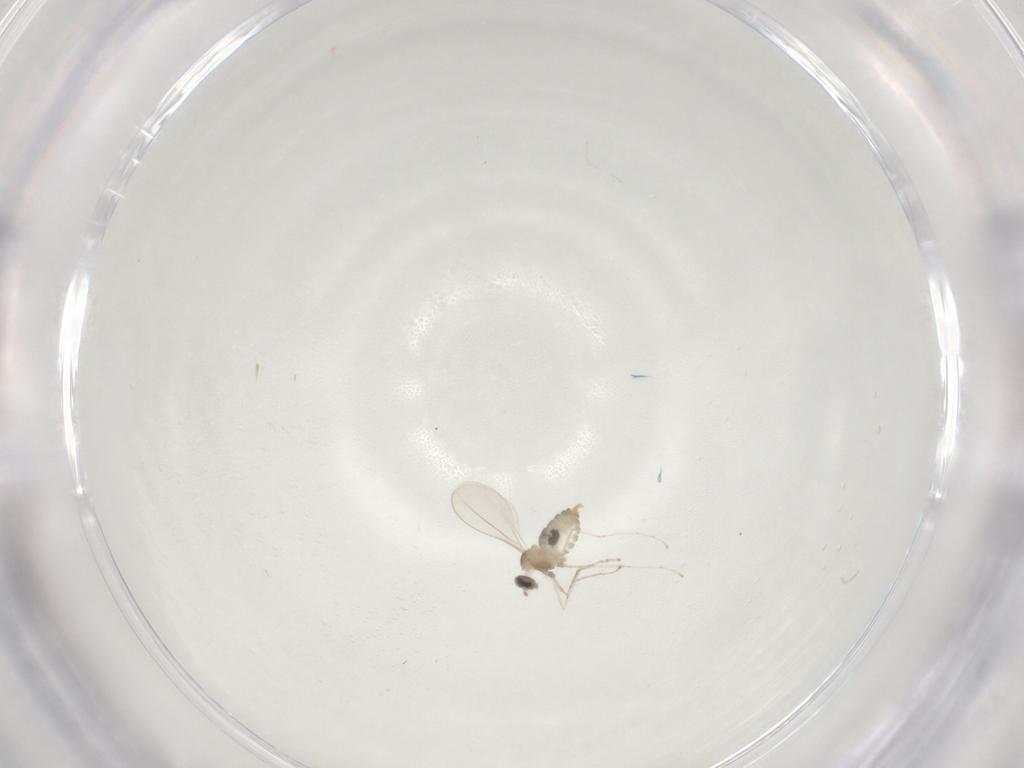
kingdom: Animalia
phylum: Arthropoda
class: Insecta
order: Diptera
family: Cecidomyiidae
